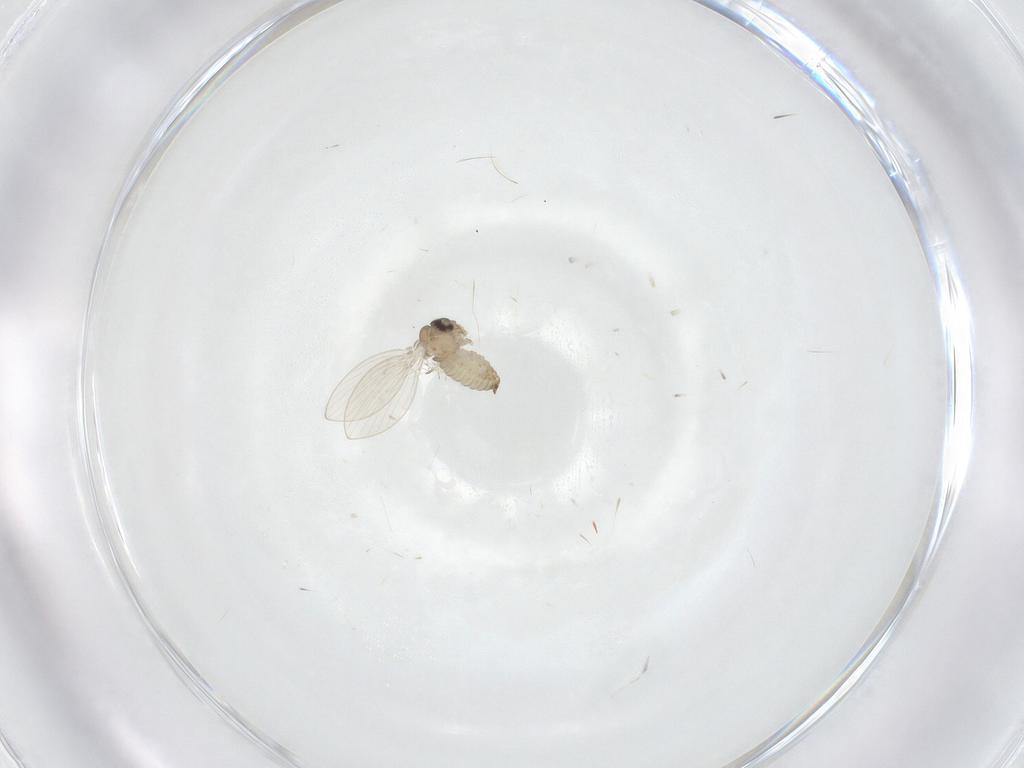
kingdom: Animalia
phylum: Arthropoda
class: Insecta
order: Diptera
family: Psychodidae
